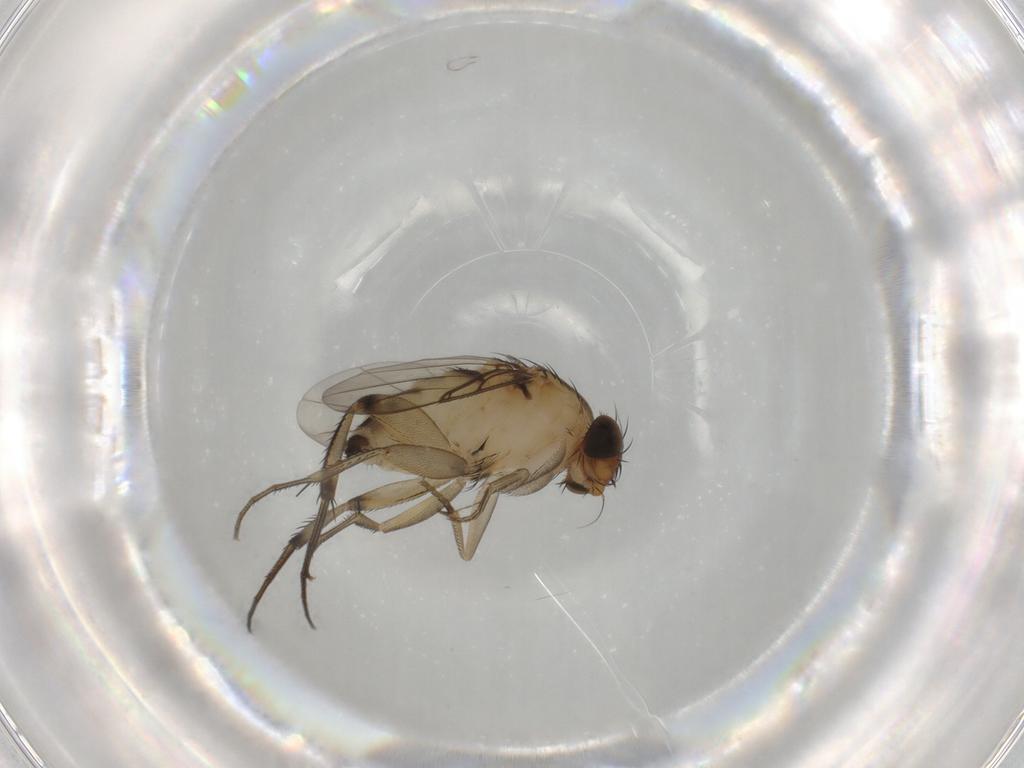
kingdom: Animalia
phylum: Arthropoda
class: Insecta
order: Diptera
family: Phoridae
